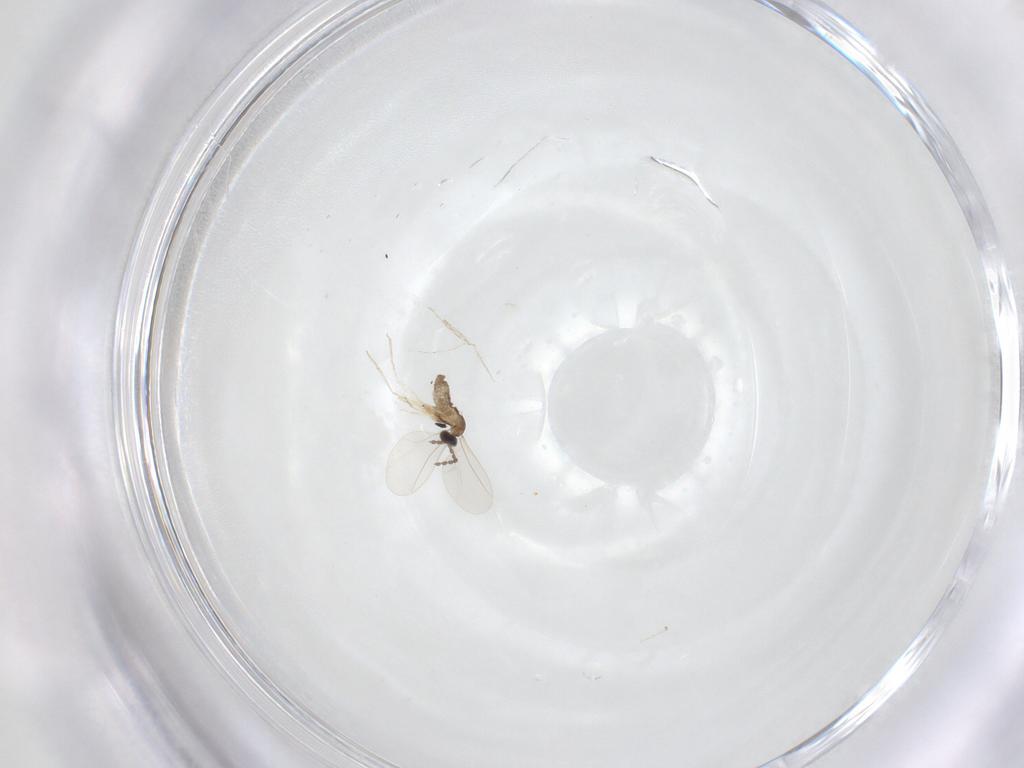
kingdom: Animalia
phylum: Arthropoda
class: Insecta
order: Diptera
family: Cecidomyiidae
